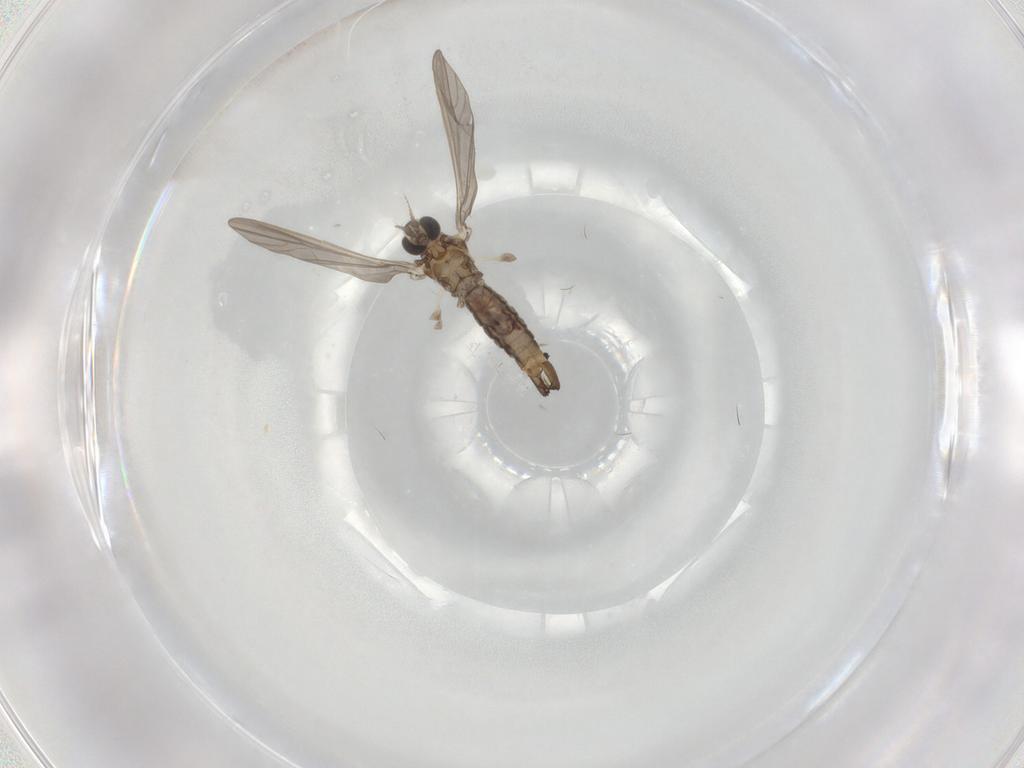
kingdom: Animalia
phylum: Arthropoda
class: Insecta
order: Diptera
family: Limoniidae
